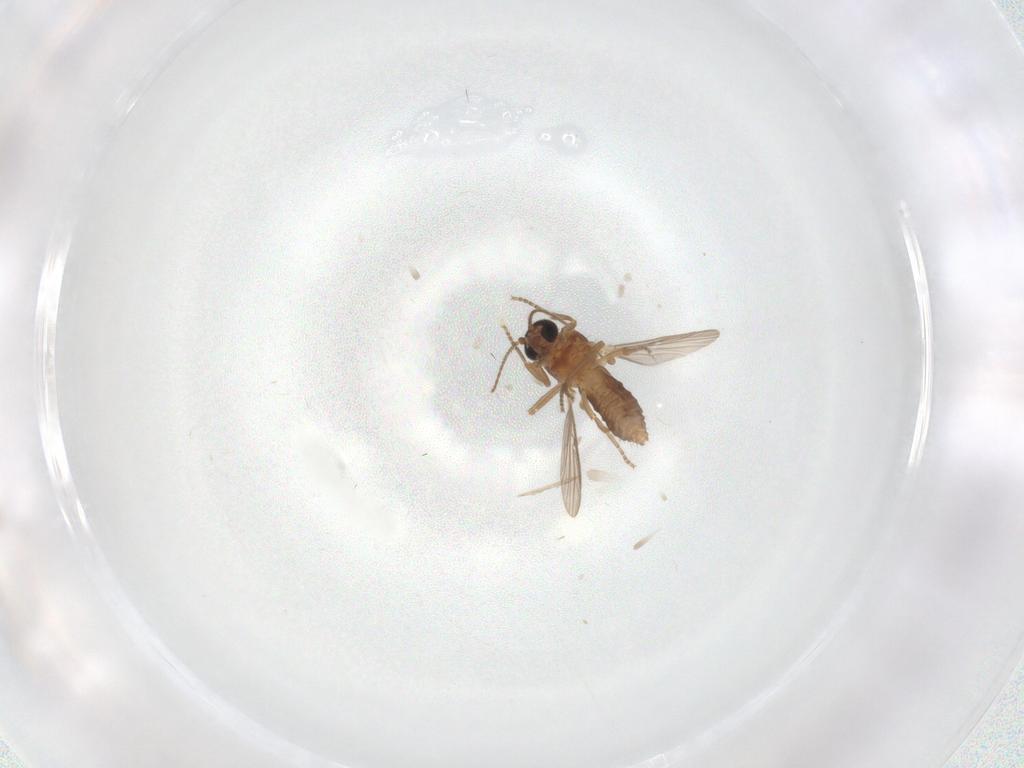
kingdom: Animalia
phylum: Arthropoda
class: Insecta
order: Diptera
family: Ceratopogonidae
